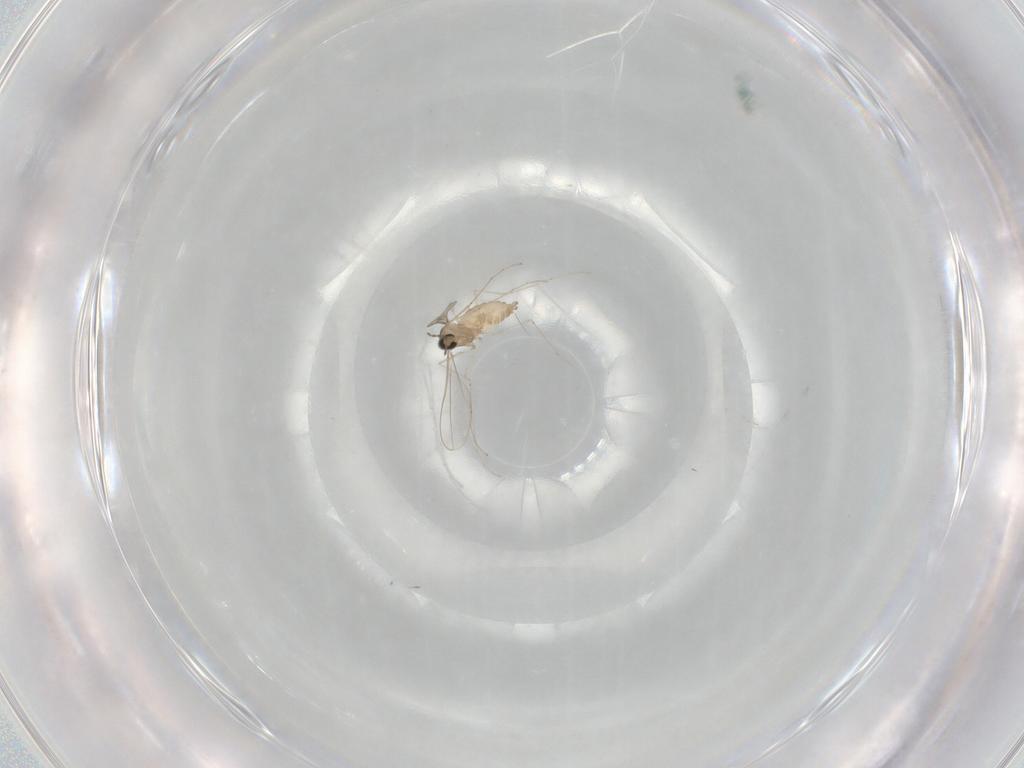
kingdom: Animalia
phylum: Arthropoda
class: Insecta
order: Diptera
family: Cecidomyiidae
